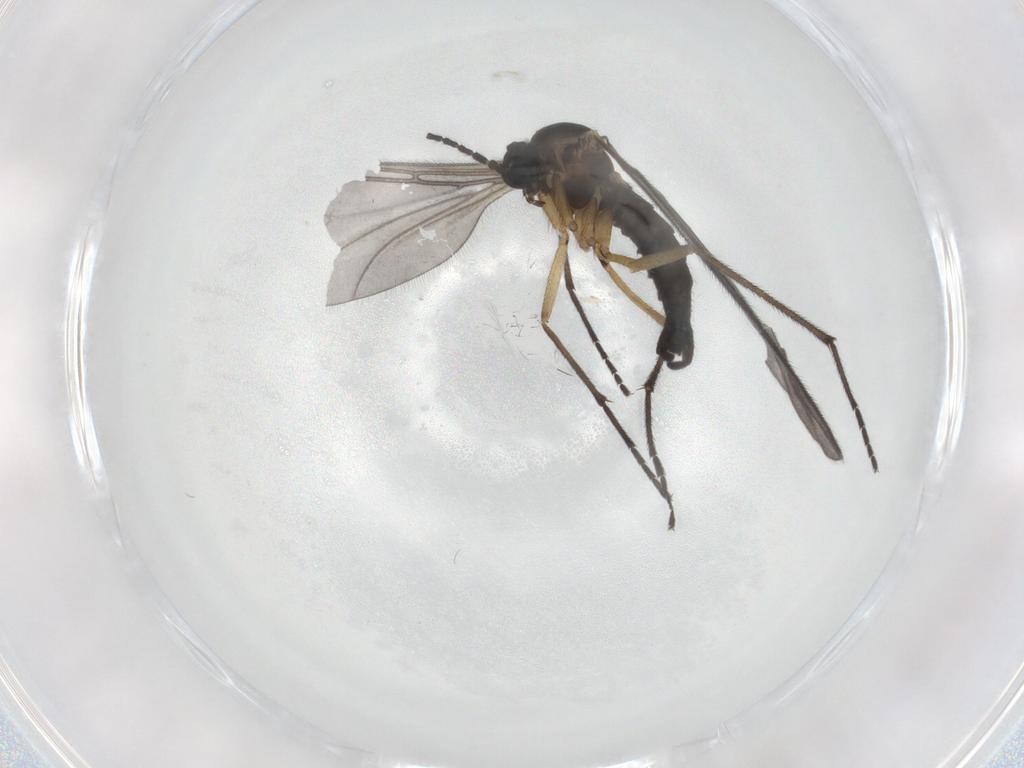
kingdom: Animalia
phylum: Arthropoda
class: Insecta
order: Diptera
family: Sciaridae
